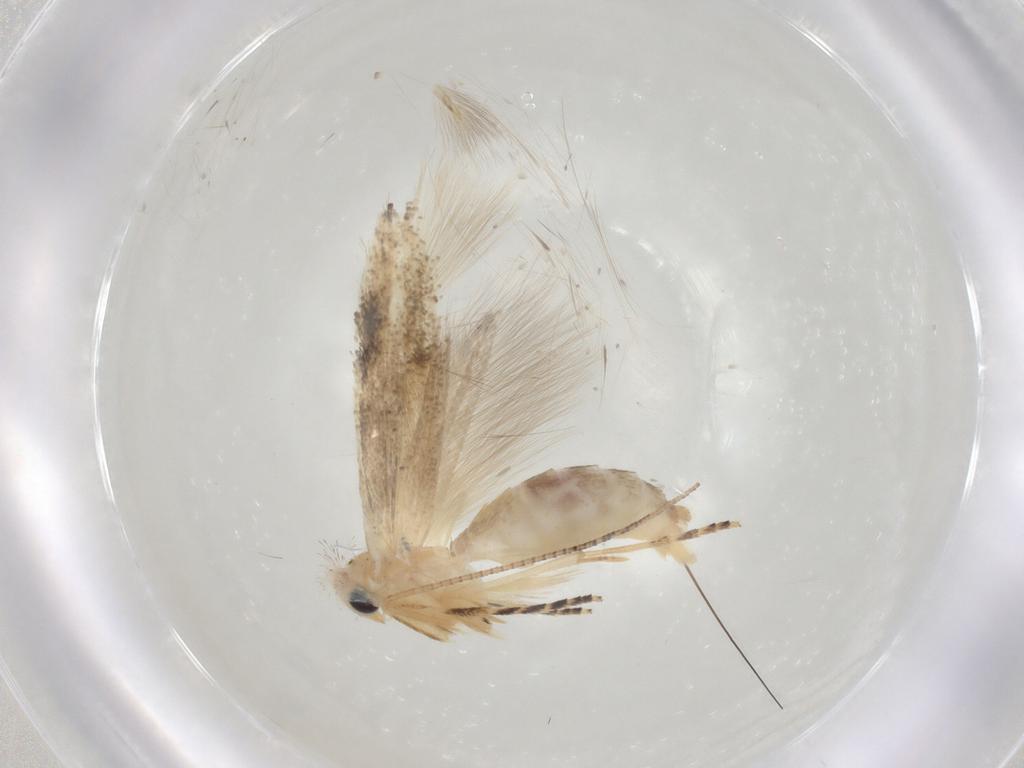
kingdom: Animalia
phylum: Arthropoda
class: Insecta
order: Lepidoptera
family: Bucculatricidae
